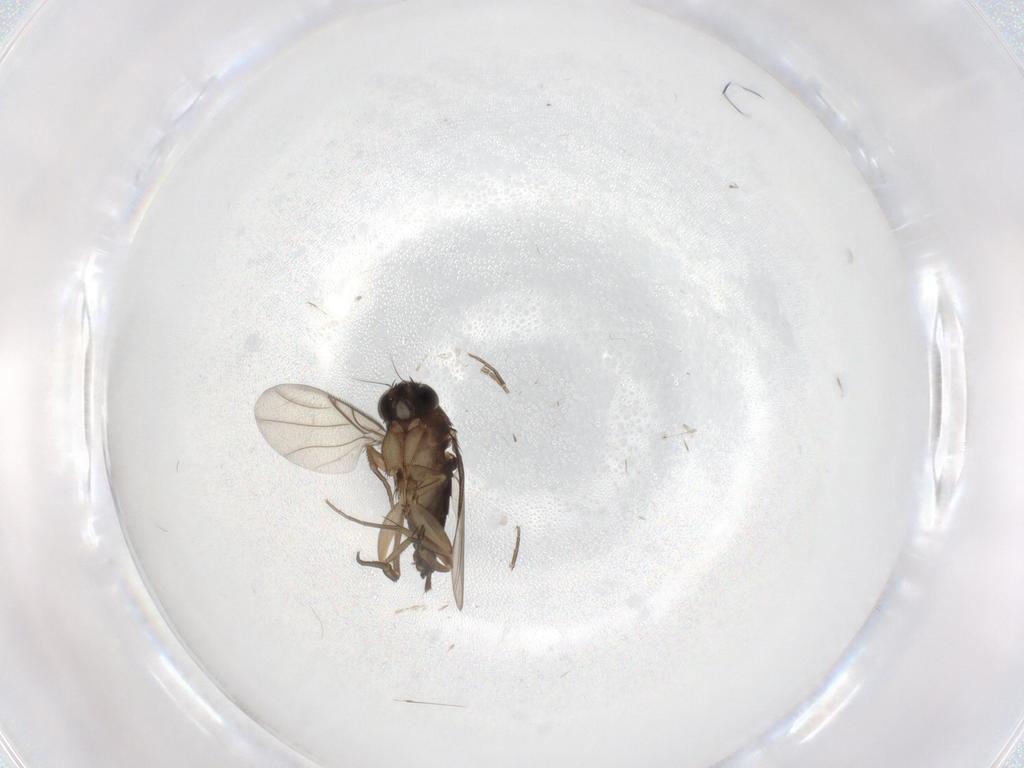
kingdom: Animalia
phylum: Arthropoda
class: Insecta
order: Diptera
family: Phoridae
